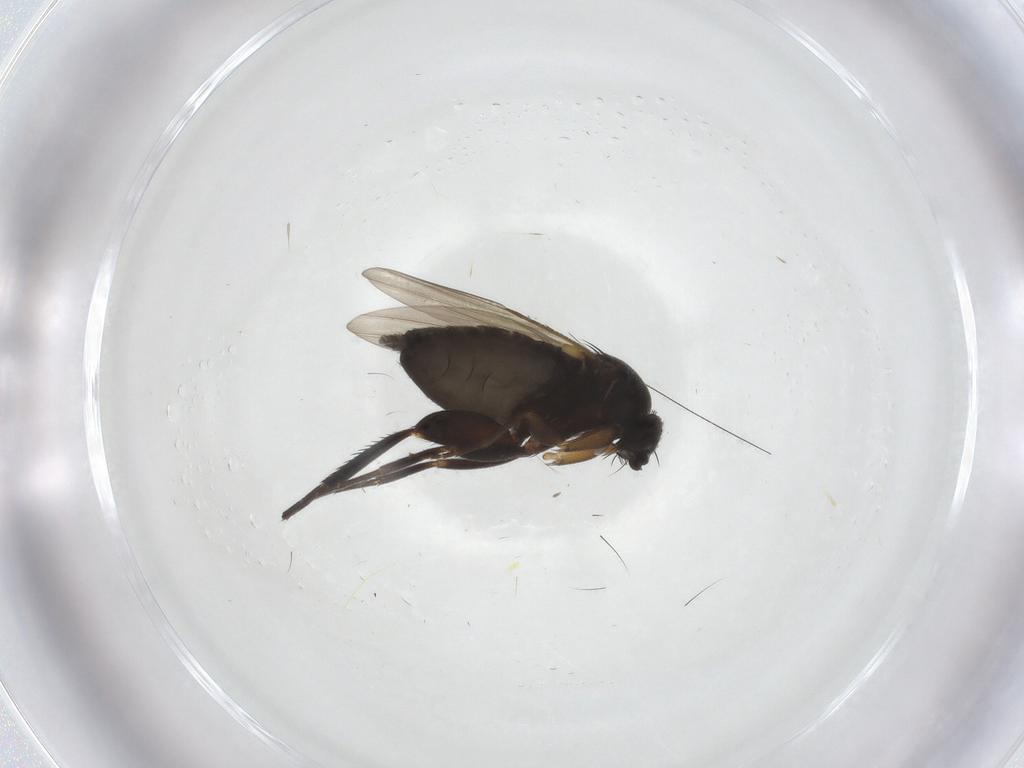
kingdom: Animalia
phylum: Arthropoda
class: Insecta
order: Diptera
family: Phoridae
